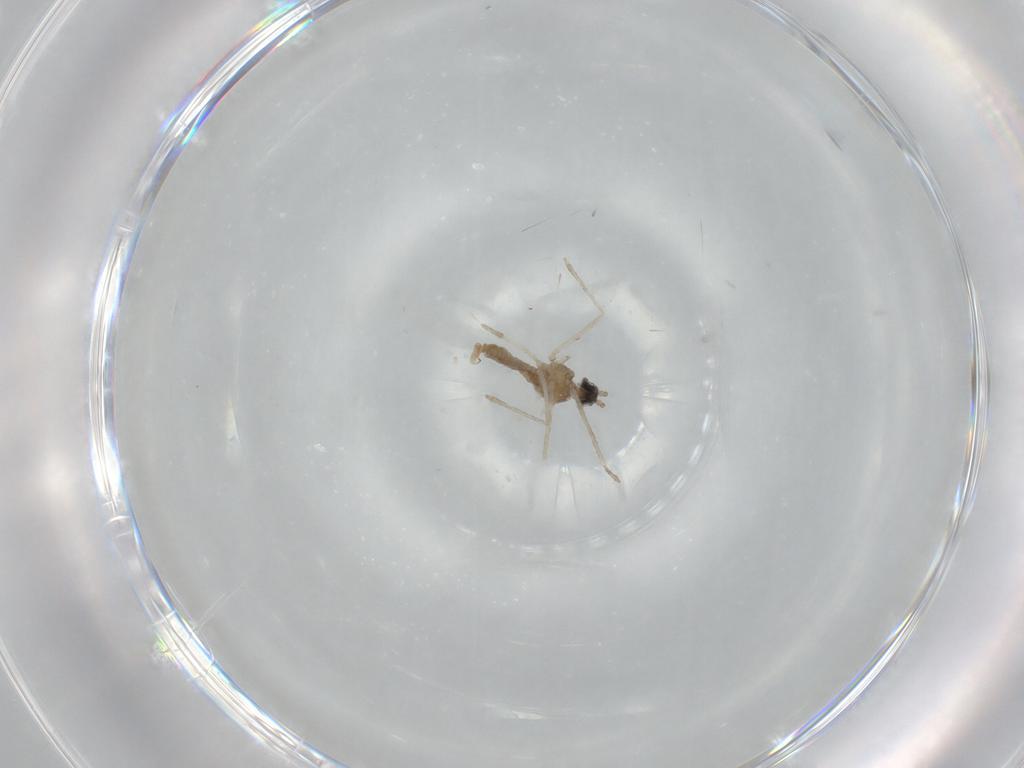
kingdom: Animalia
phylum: Arthropoda
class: Insecta
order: Diptera
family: Cecidomyiidae
